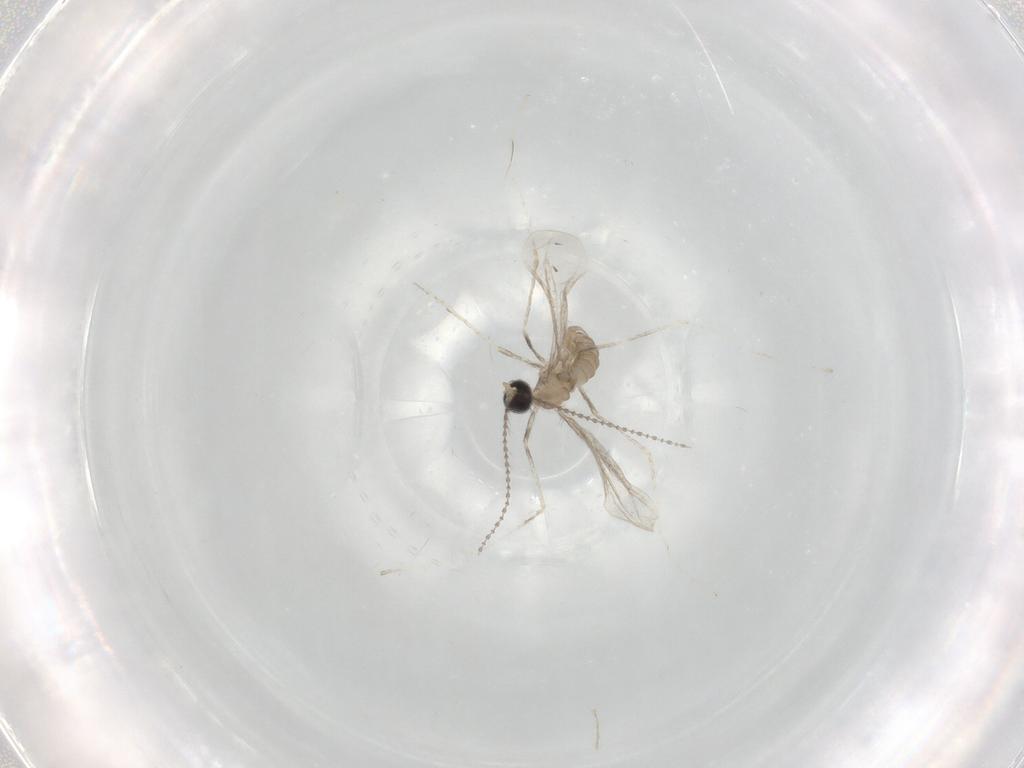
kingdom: Animalia
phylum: Arthropoda
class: Insecta
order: Diptera
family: Cecidomyiidae
